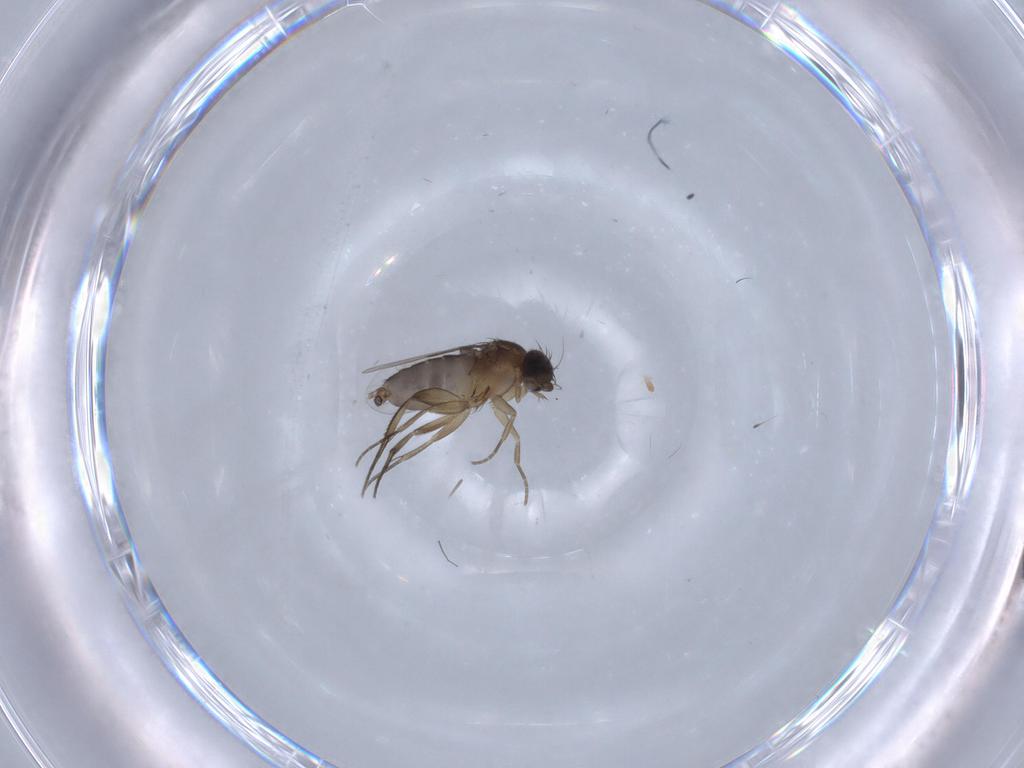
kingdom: Animalia
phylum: Arthropoda
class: Insecta
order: Diptera
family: Phoridae
